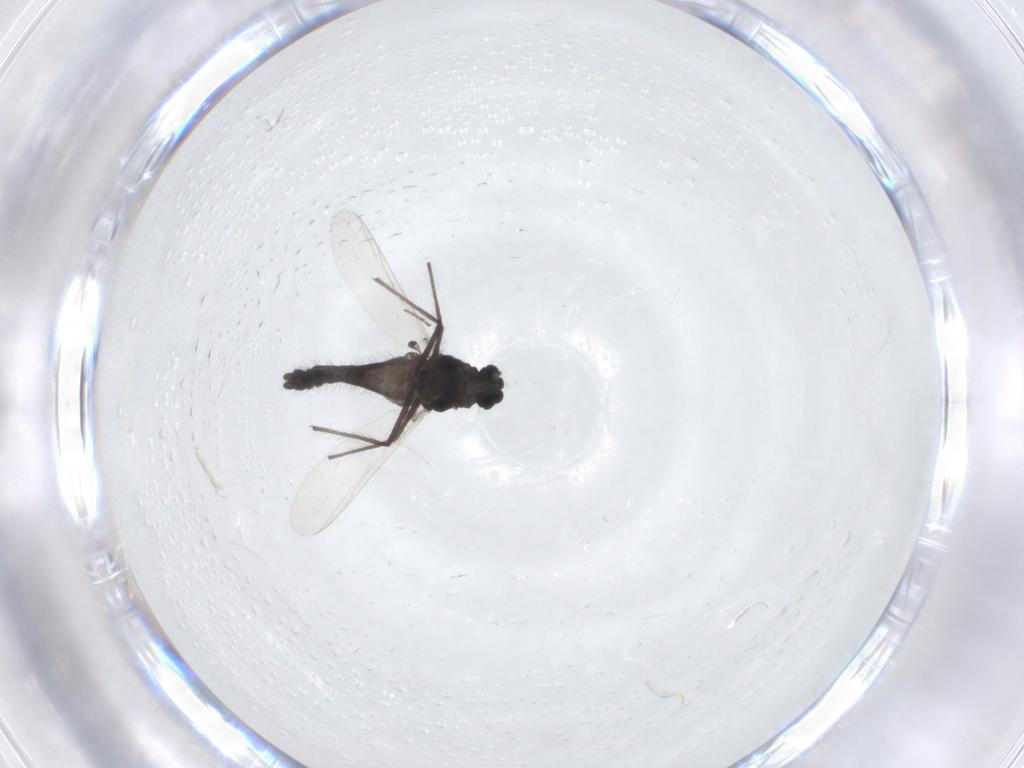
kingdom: Animalia
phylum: Arthropoda
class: Insecta
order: Diptera
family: Chironomidae
